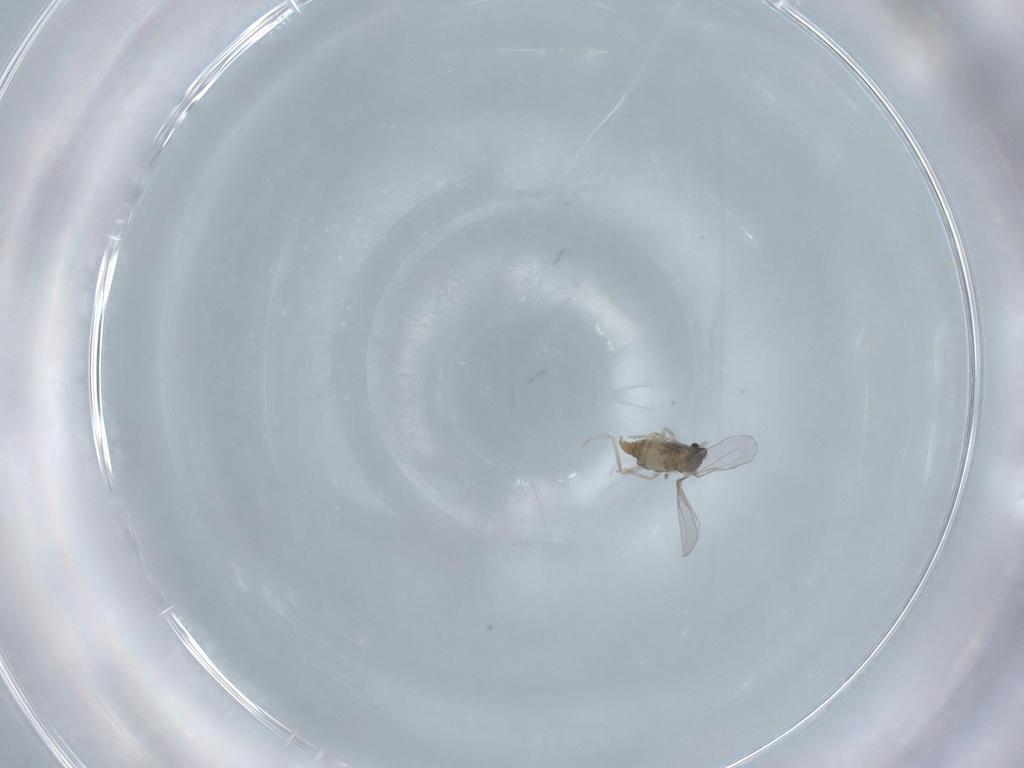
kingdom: Animalia
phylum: Arthropoda
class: Insecta
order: Diptera
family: Cecidomyiidae
